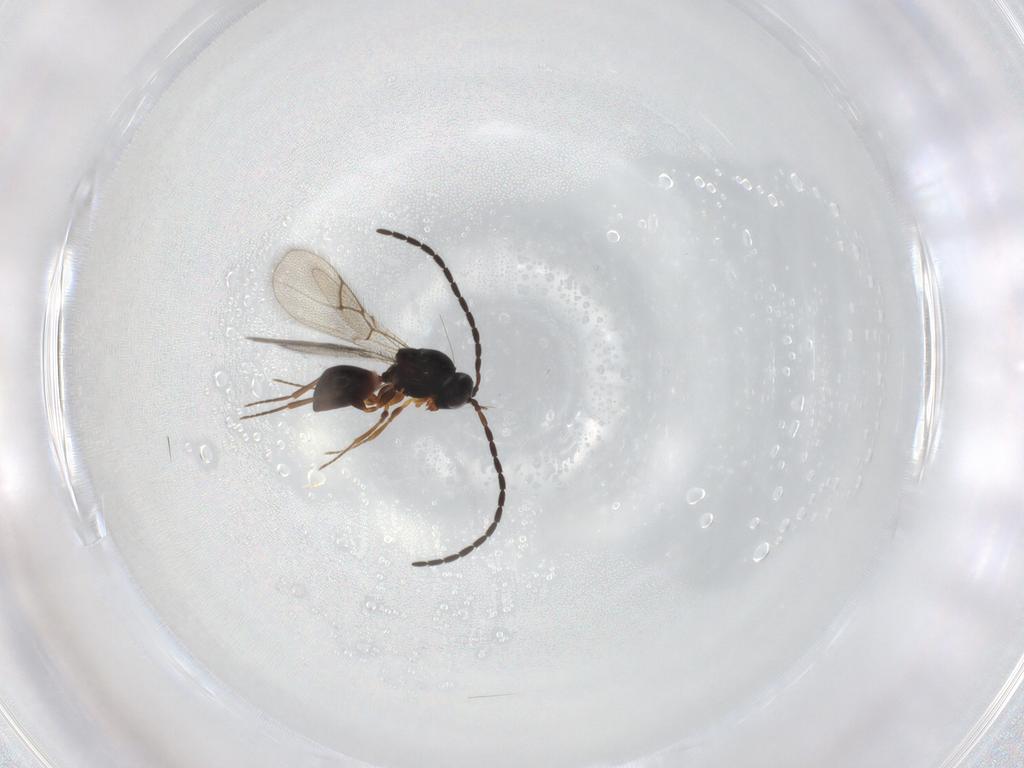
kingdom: Animalia
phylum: Arthropoda
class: Insecta
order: Hymenoptera
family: Figitidae
